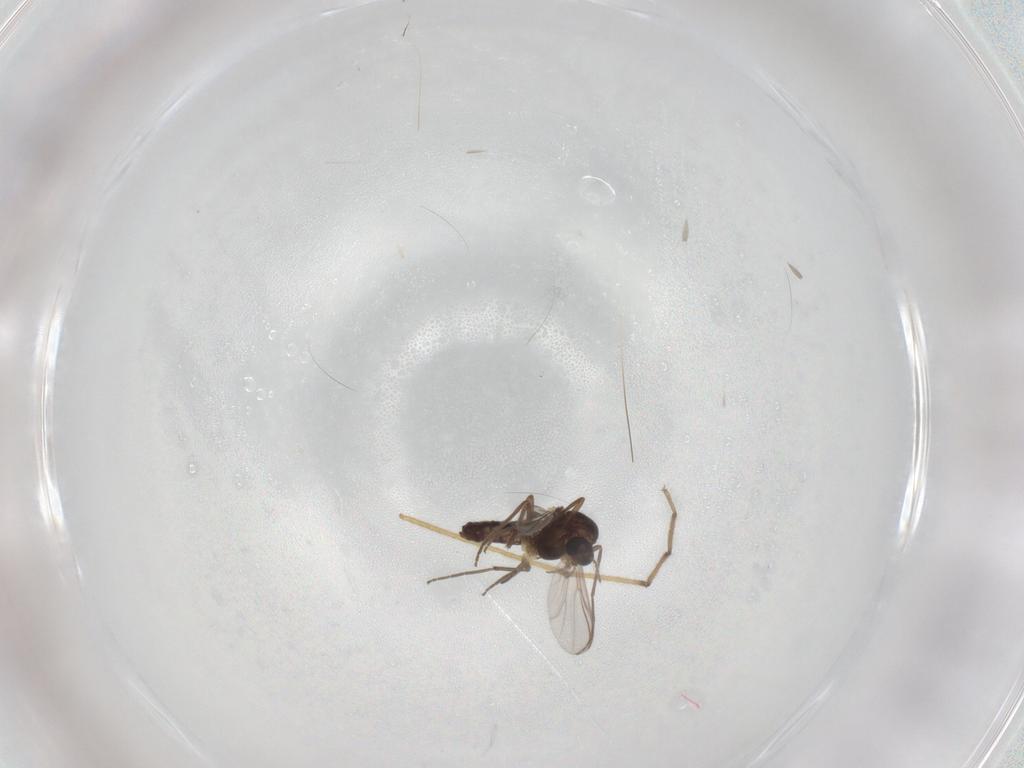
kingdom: Animalia
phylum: Arthropoda
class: Insecta
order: Diptera
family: Chironomidae
